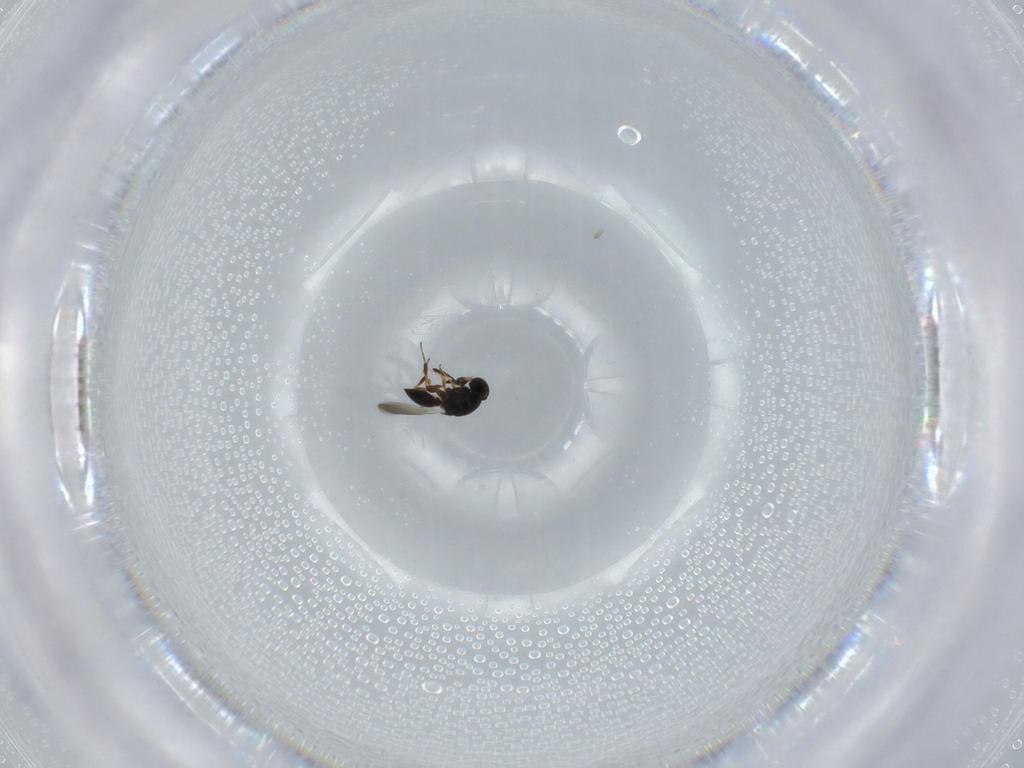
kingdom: Animalia
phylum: Arthropoda
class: Insecta
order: Hymenoptera
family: Platygastridae
